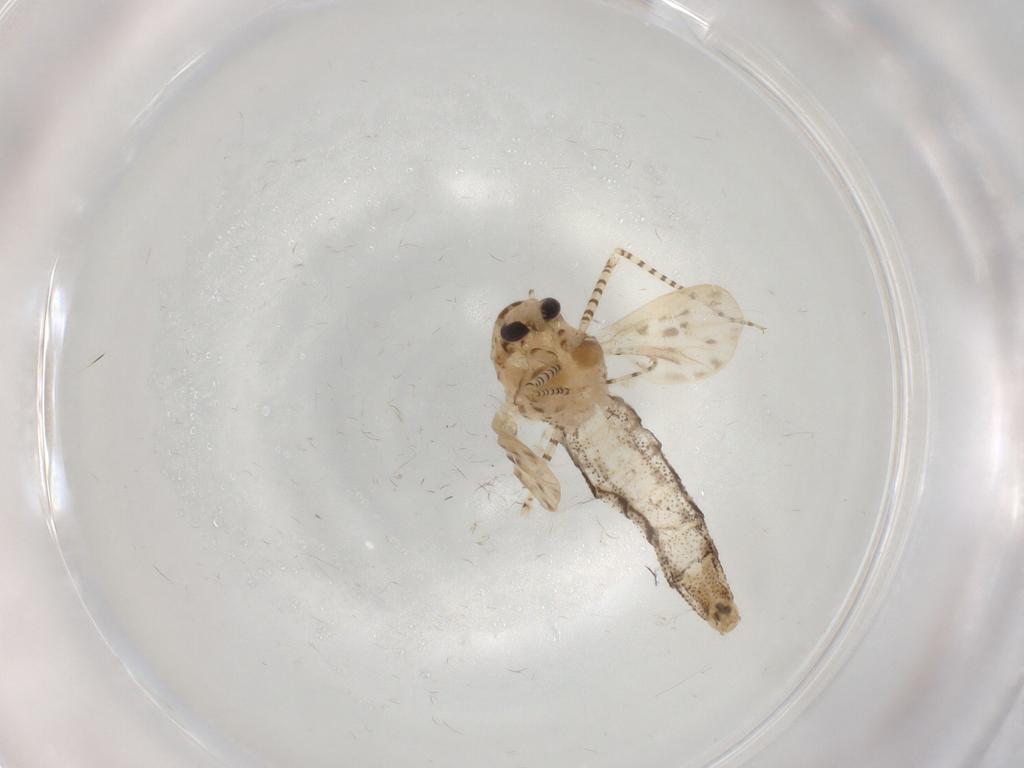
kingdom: Animalia
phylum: Arthropoda
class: Insecta
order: Diptera
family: Chaoboridae
